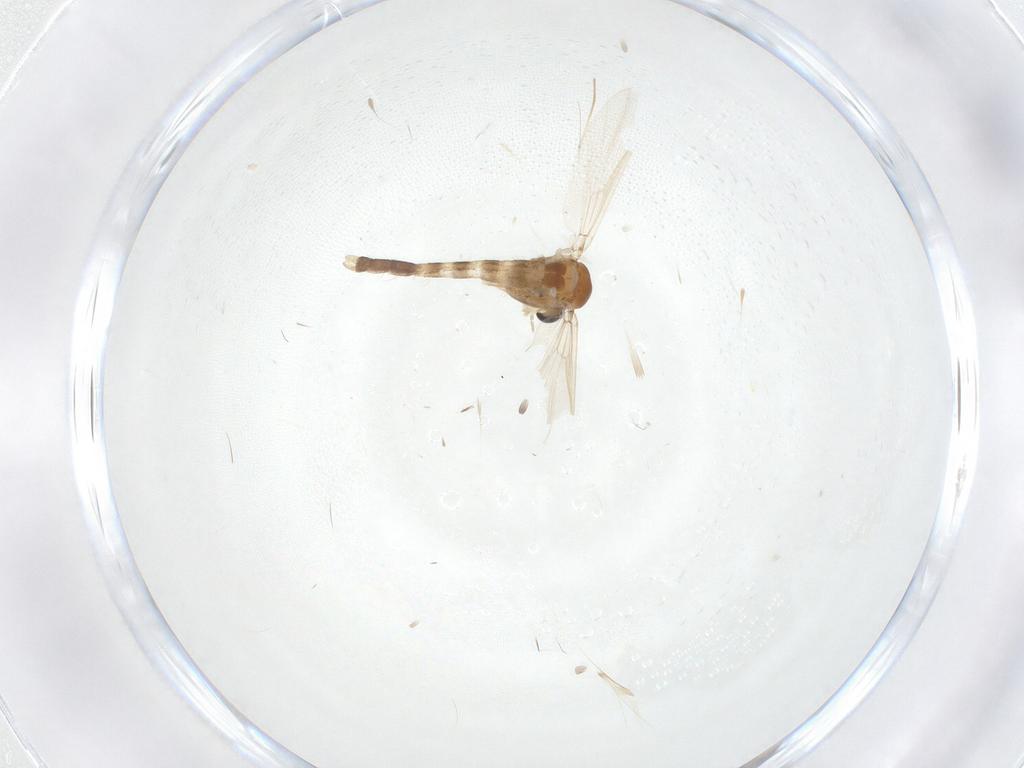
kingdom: Animalia
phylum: Arthropoda
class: Insecta
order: Diptera
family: Chironomidae
